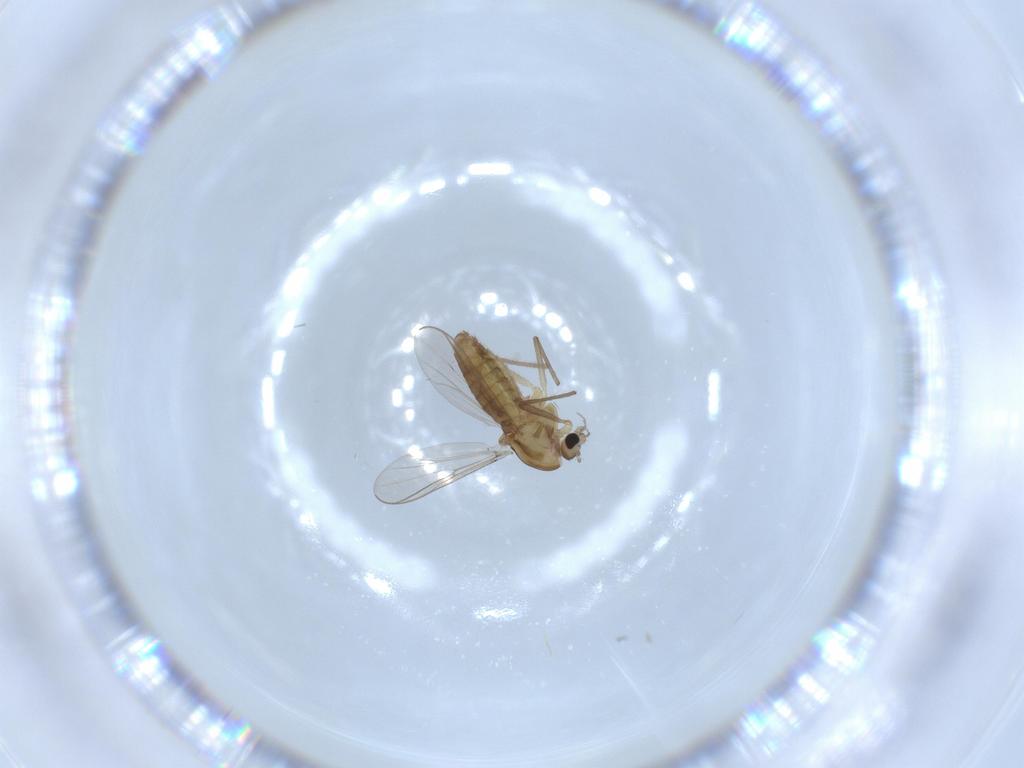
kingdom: Animalia
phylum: Arthropoda
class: Insecta
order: Diptera
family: Chironomidae
